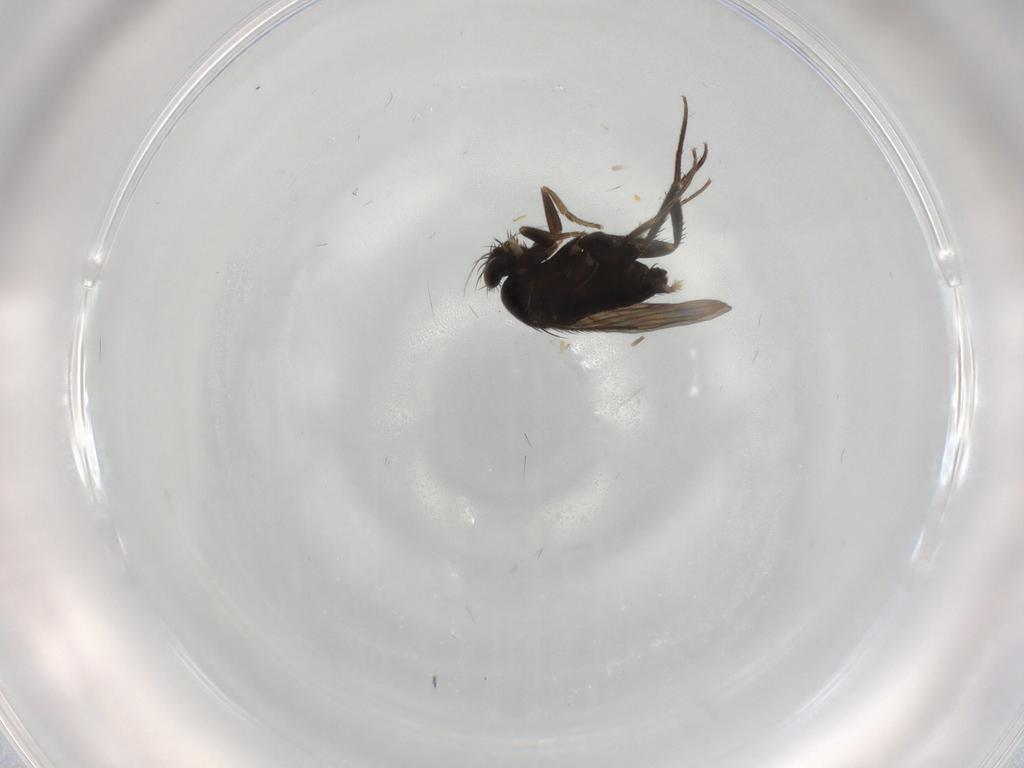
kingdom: Animalia
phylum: Arthropoda
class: Insecta
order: Diptera
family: Phoridae
